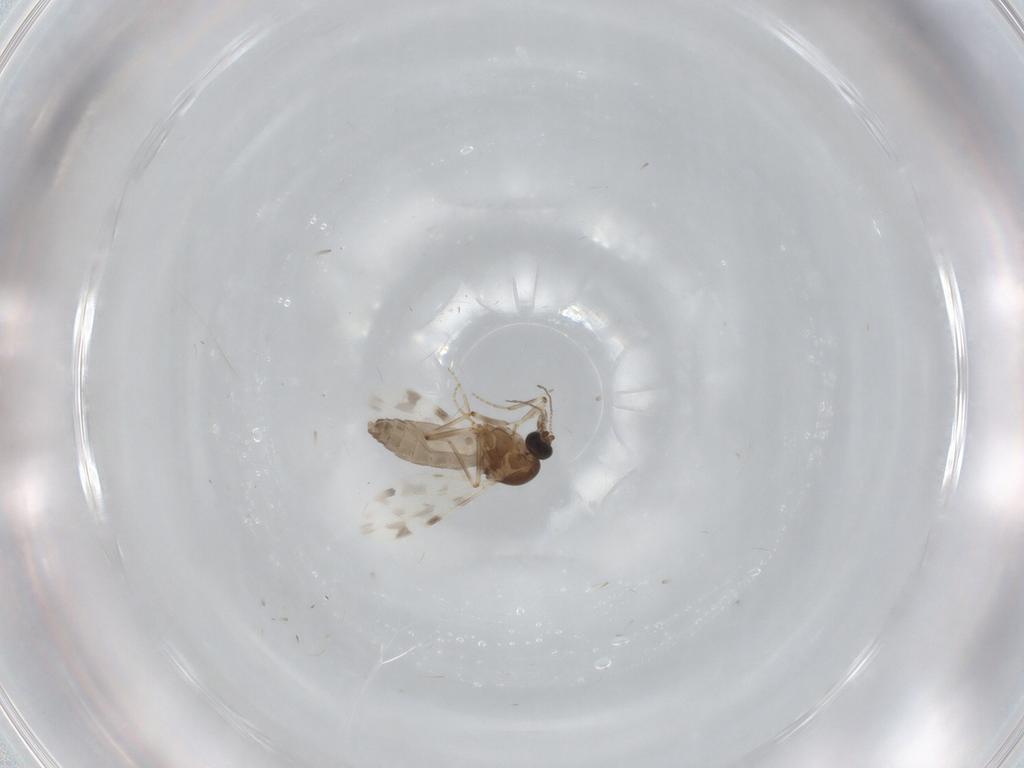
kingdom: Animalia
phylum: Arthropoda
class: Insecta
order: Diptera
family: Ceratopogonidae
